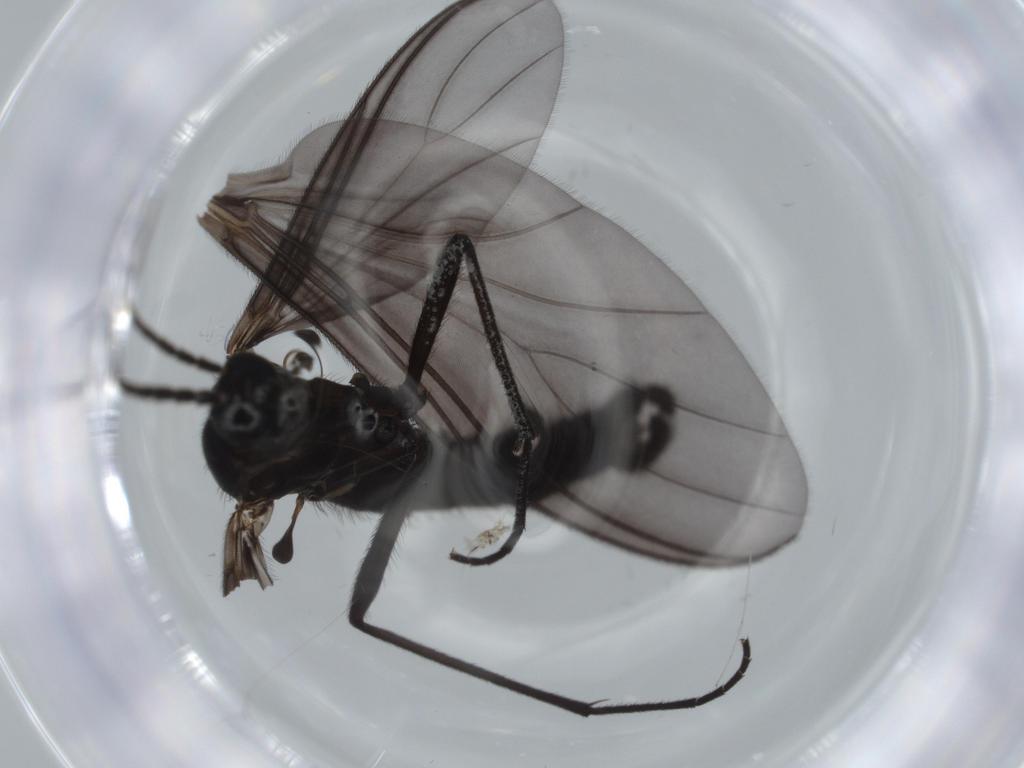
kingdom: Animalia
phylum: Arthropoda
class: Insecta
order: Diptera
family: Cecidomyiidae
